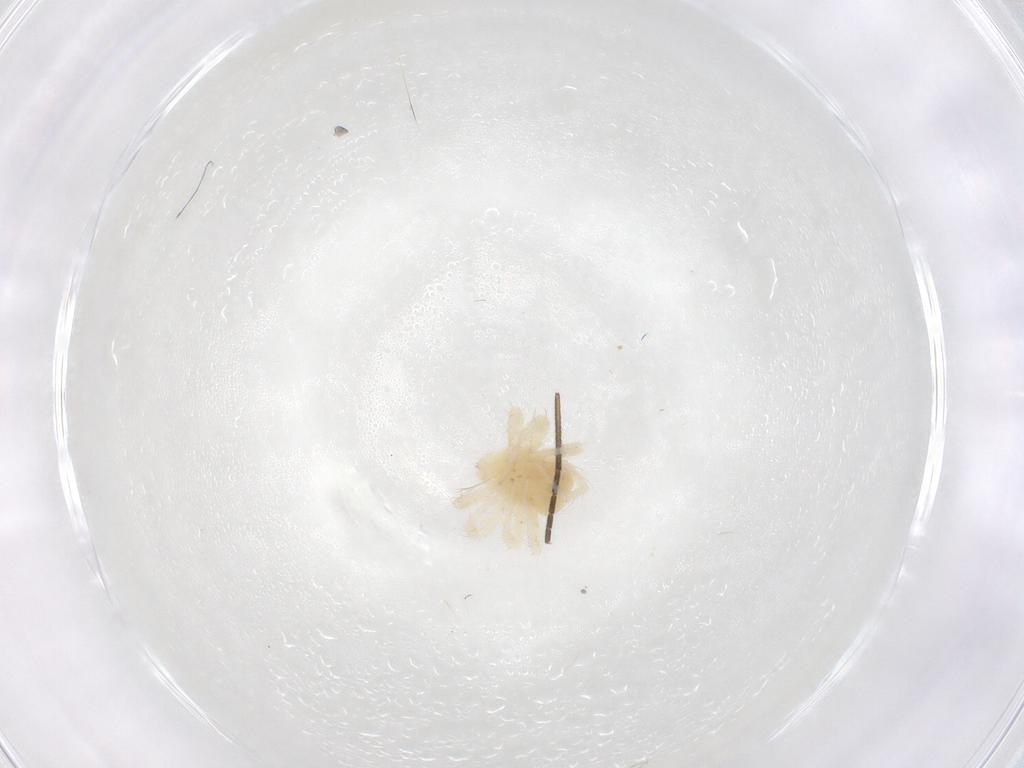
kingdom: Animalia
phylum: Arthropoda
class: Arachnida
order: Trombidiformes
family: Anystidae
